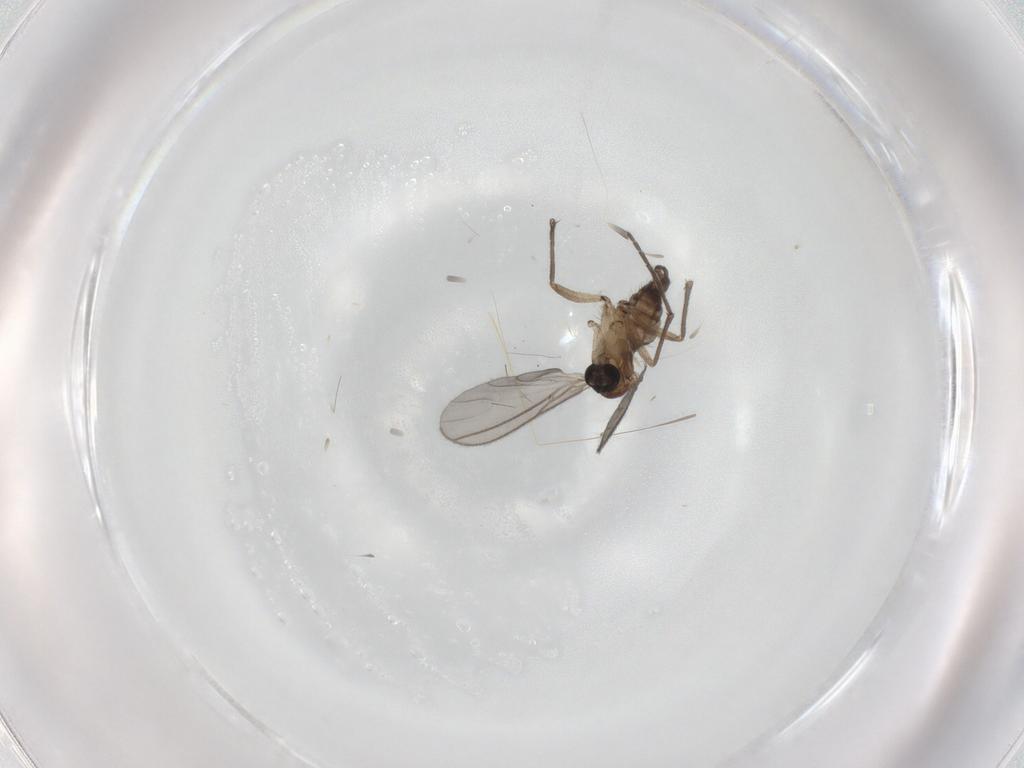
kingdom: Animalia
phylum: Arthropoda
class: Insecta
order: Diptera
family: Sciaridae
